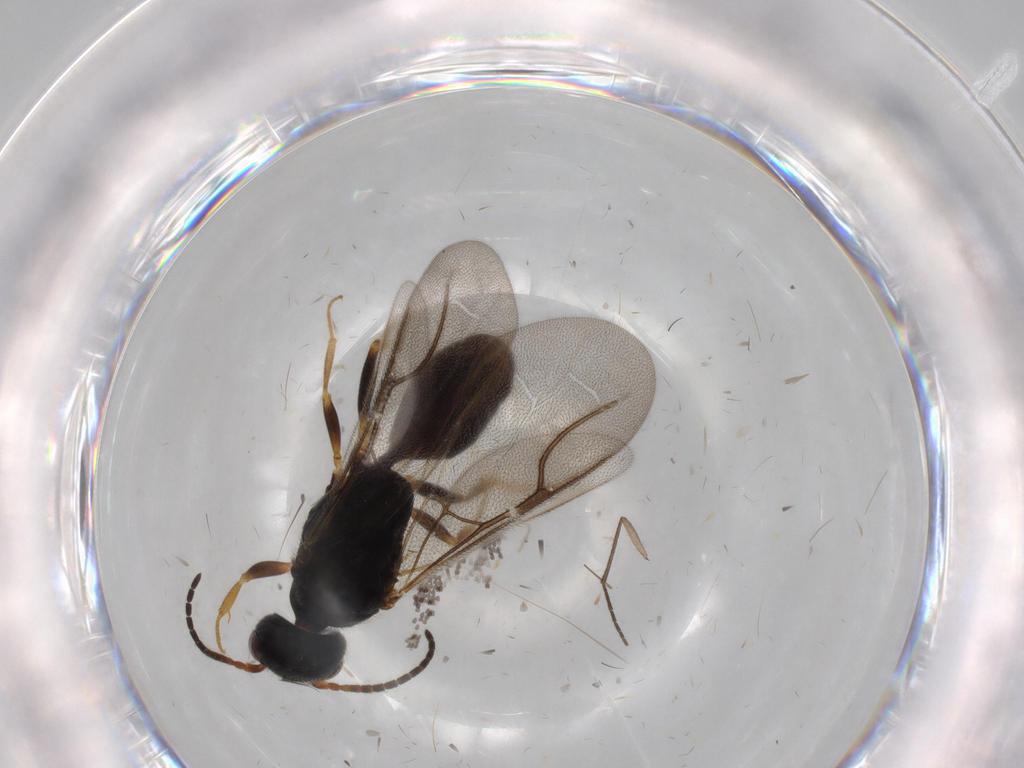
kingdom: Animalia
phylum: Arthropoda
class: Insecta
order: Hymenoptera
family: Bethylidae
